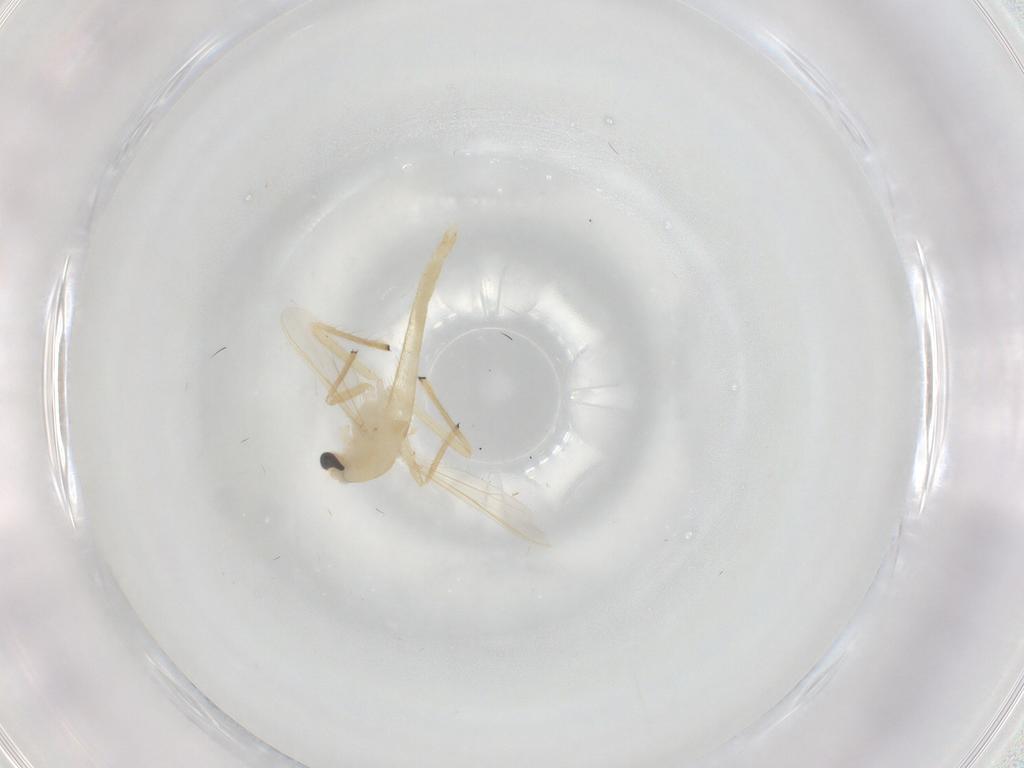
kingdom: Animalia
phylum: Arthropoda
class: Insecta
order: Diptera
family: Chironomidae
